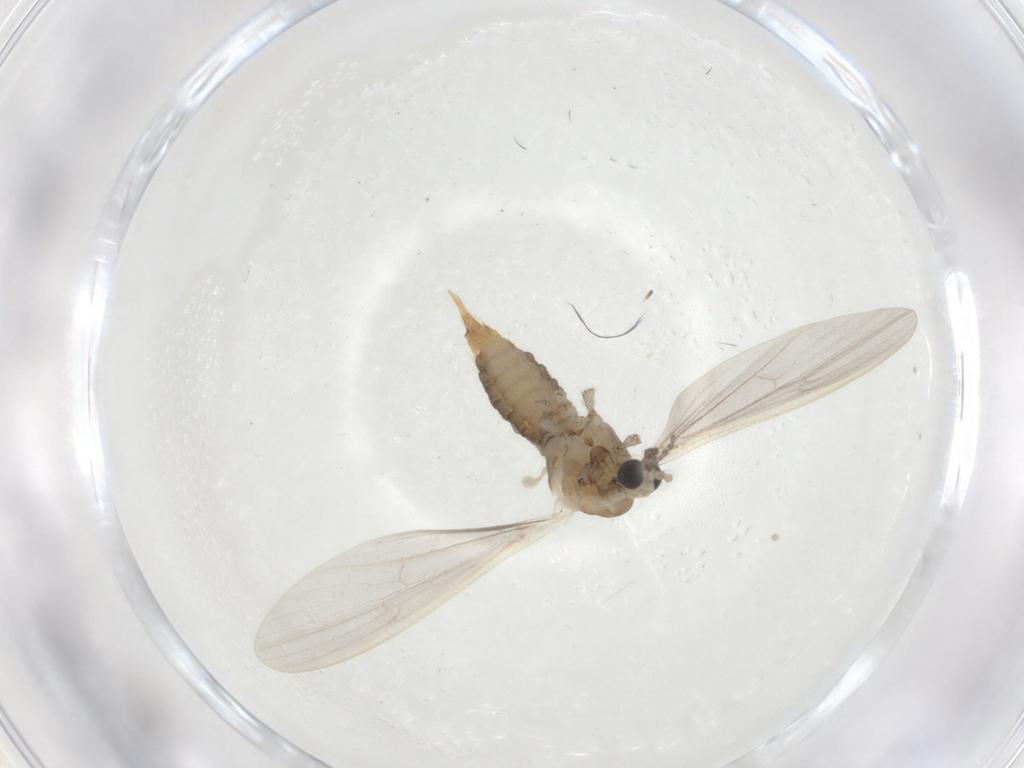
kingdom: Animalia
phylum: Arthropoda
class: Insecta
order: Diptera
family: Limoniidae
